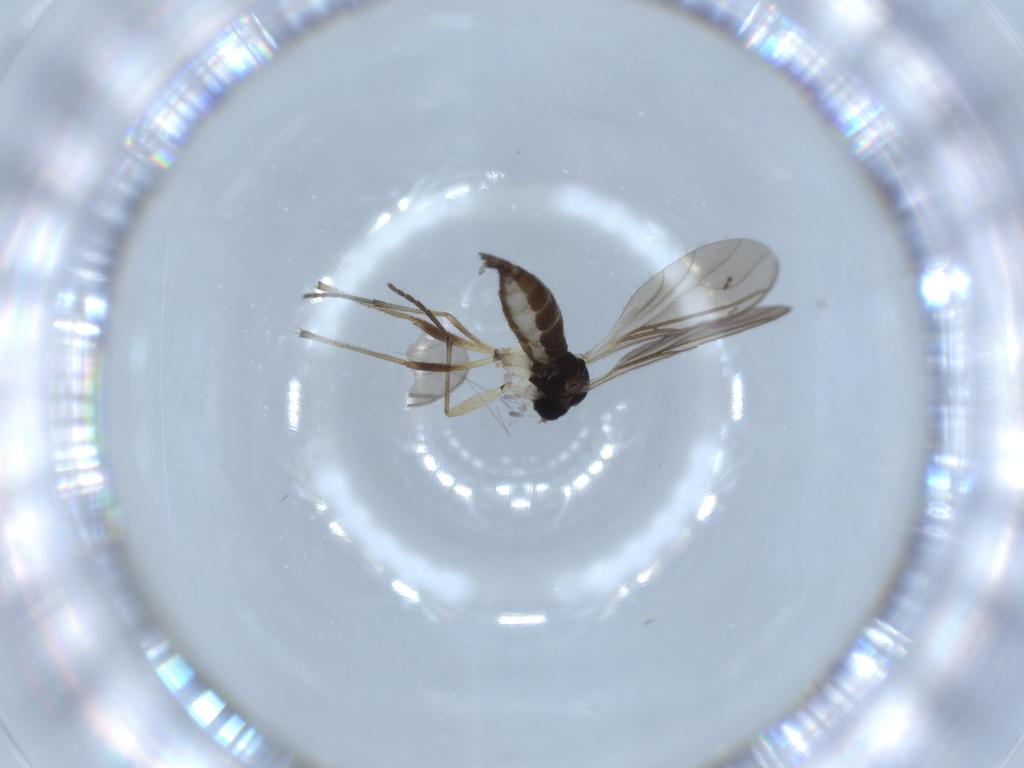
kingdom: Animalia
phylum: Arthropoda
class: Insecta
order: Diptera
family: Sciaridae
